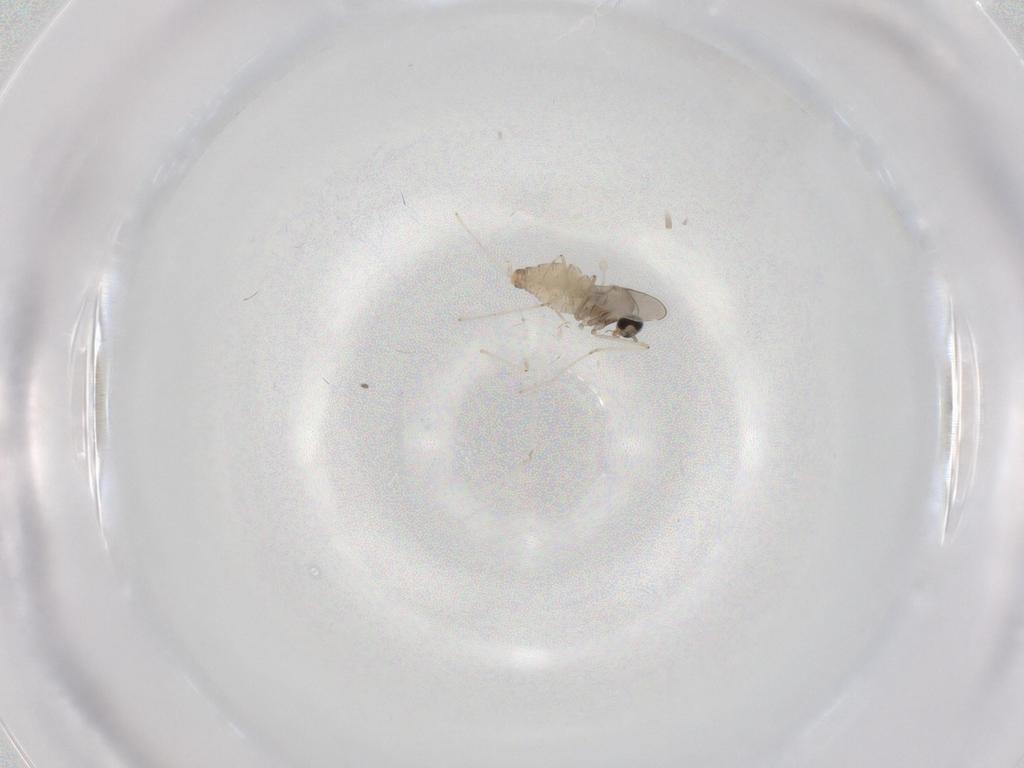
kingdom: Animalia
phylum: Arthropoda
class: Insecta
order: Diptera
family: Cecidomyiidae
